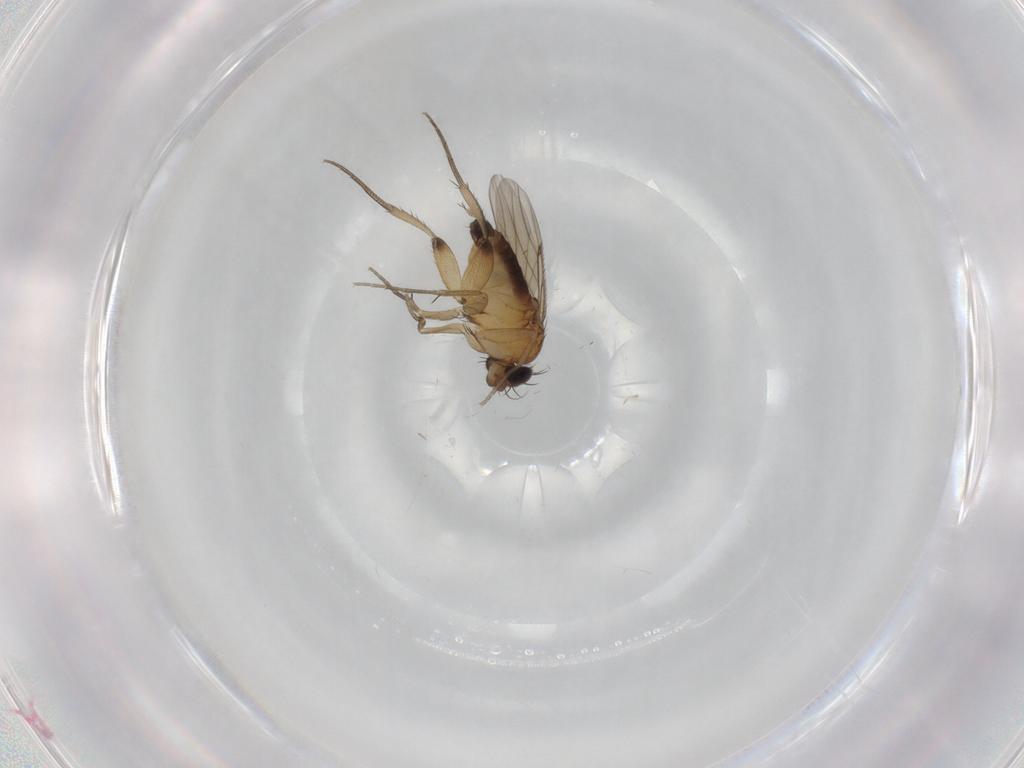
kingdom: Animalia
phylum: Arthropoda
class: Insecta
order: Diptera
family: Phoridae
